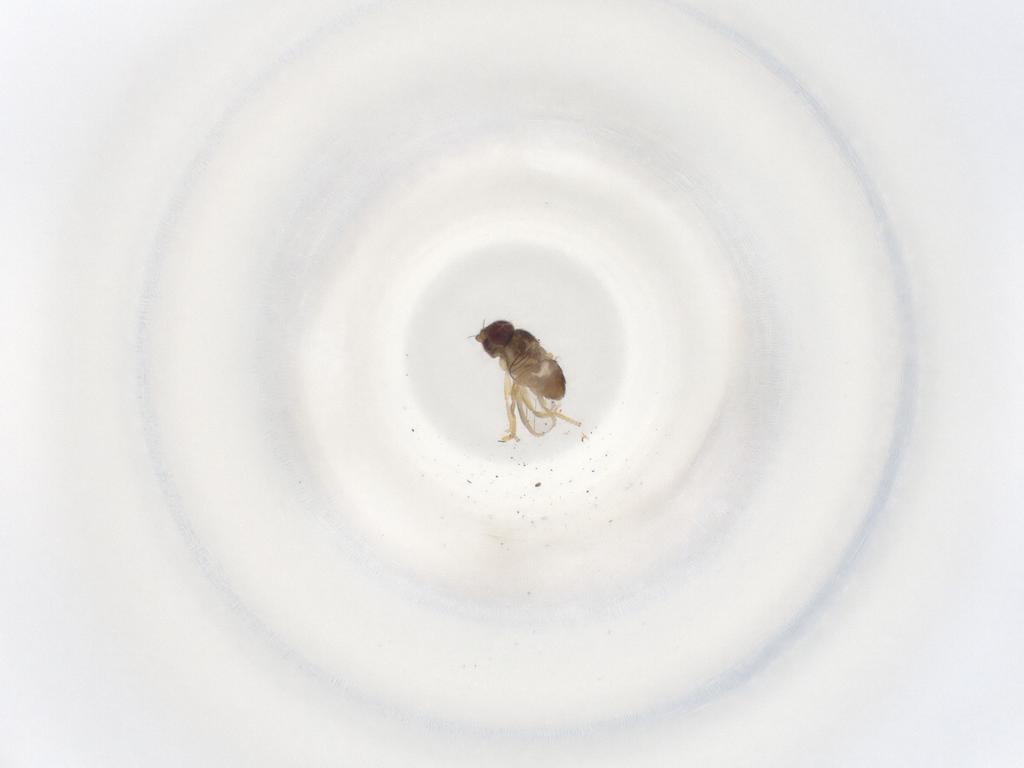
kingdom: Animalia
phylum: Arthropoda
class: Insecta
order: Diptera
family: Chloropidae
